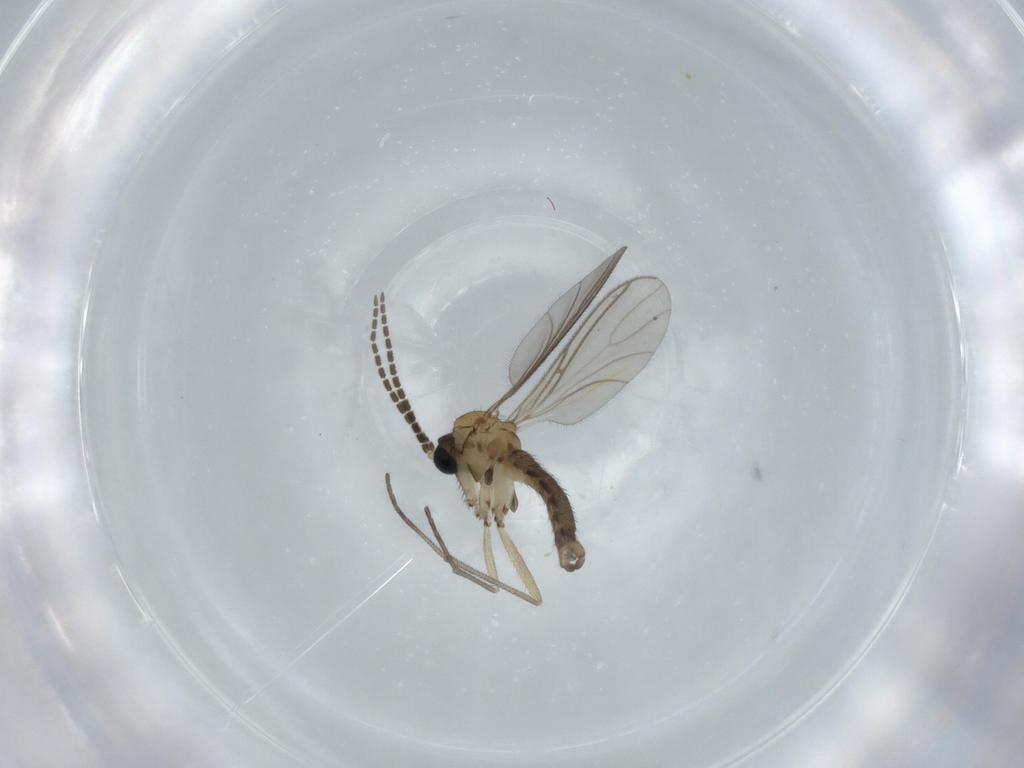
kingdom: Animalia
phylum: Arthropoda
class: Insecta
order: Diptera
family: Sciaridae
